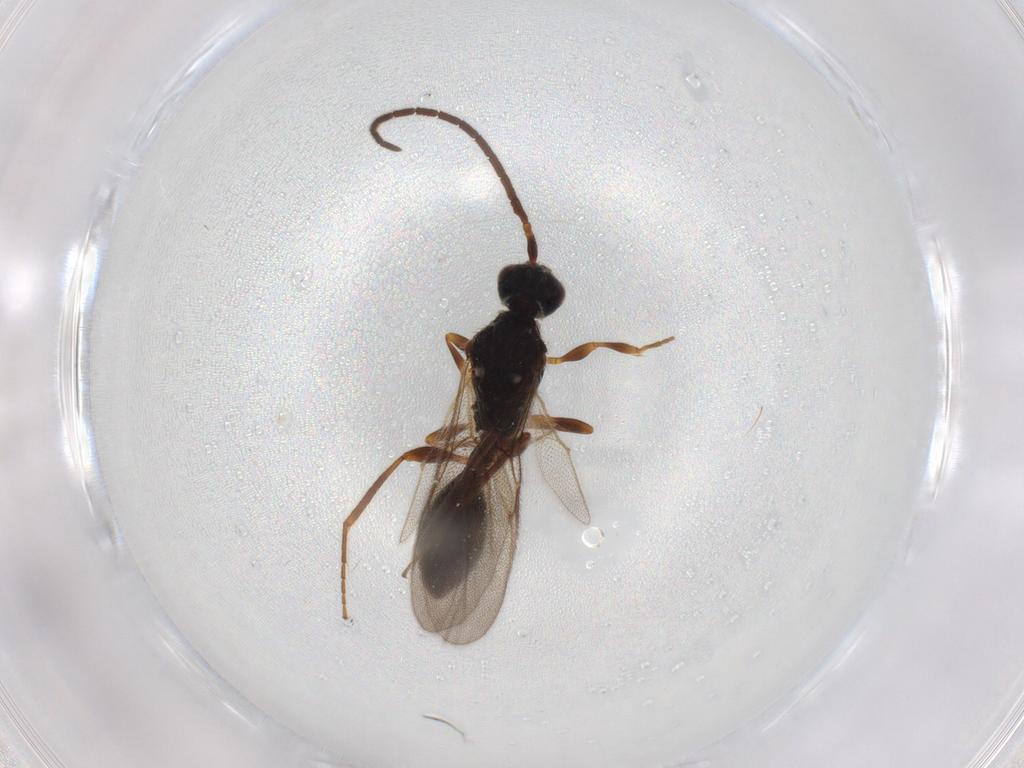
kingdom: Animalia
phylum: Arthropoda
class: Insecta
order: Hymenoptera
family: Diapriidae
